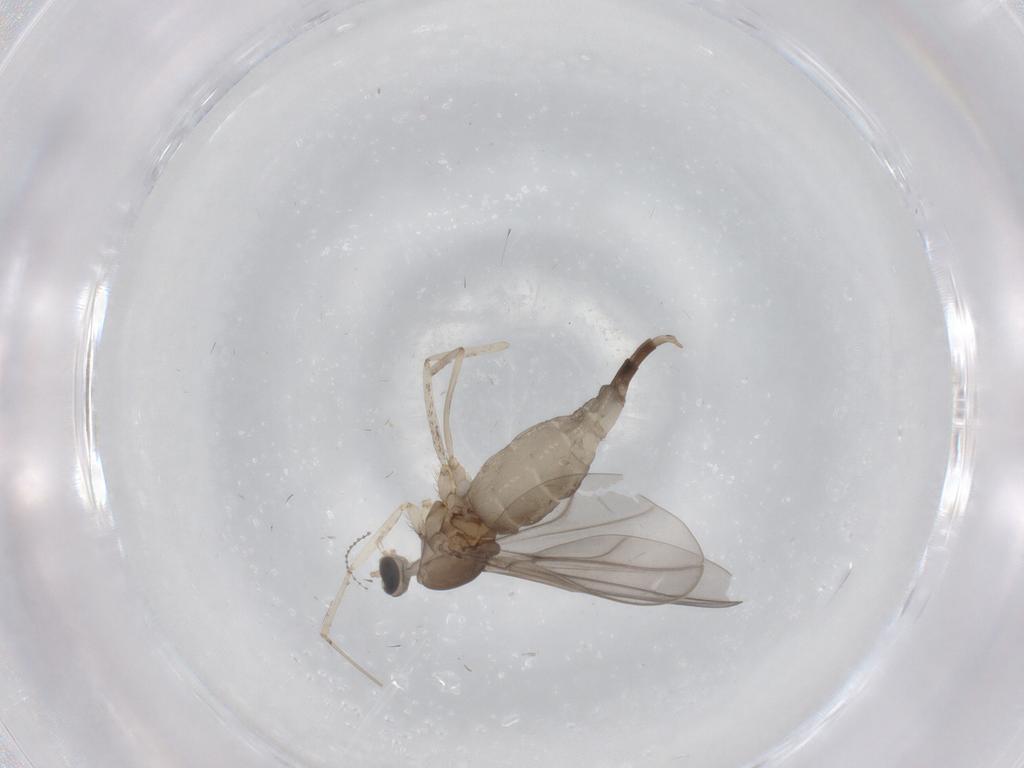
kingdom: Animalia
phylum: Arthropoda
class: Insecta
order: Diptera
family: Cecidomyiidae
